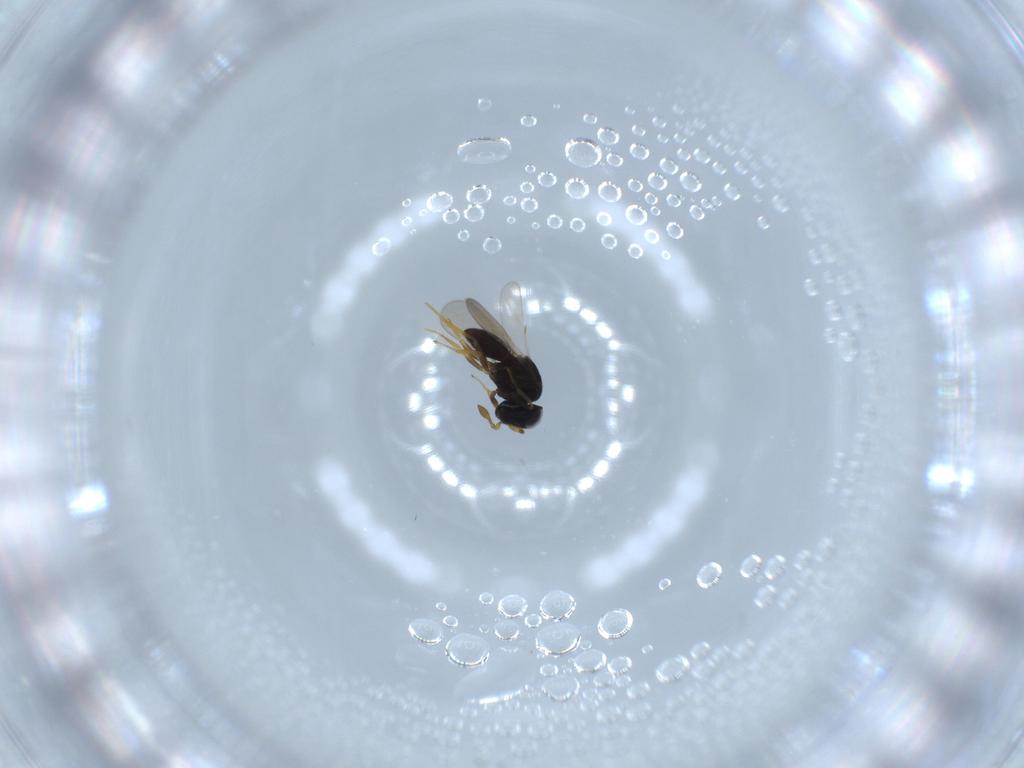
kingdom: Animalia
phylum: Arthropoda
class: Insecta
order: Hymenoptera
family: Scelionidae
